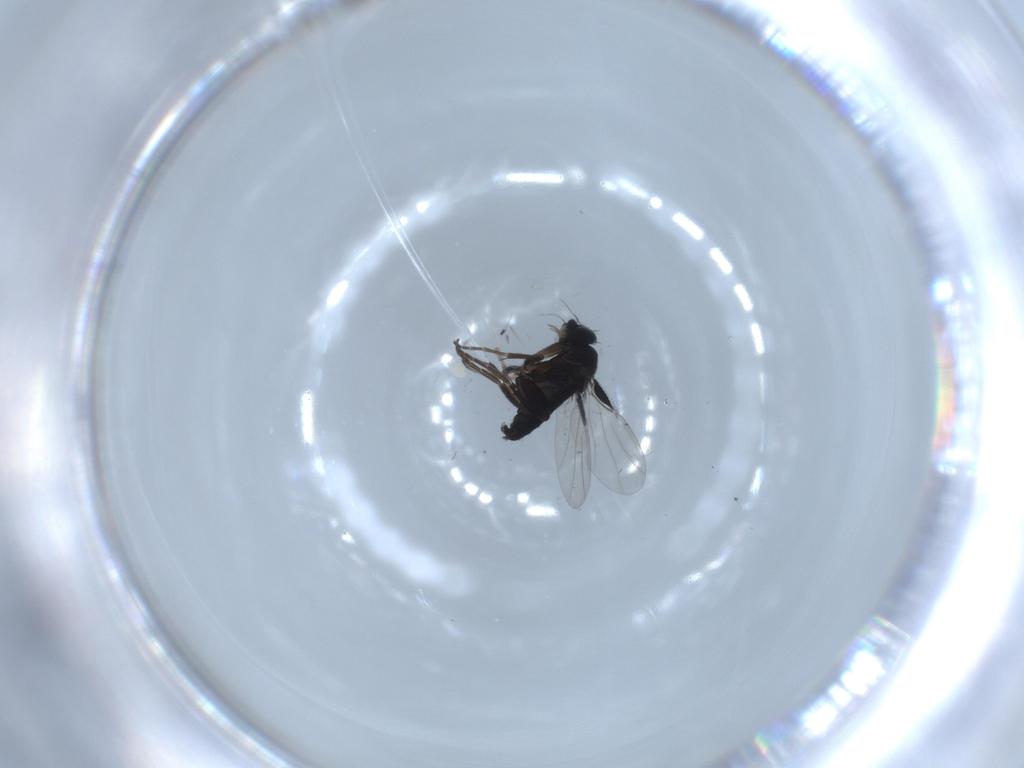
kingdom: Animalia
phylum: Arthropoda
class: Insecta
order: Diptera
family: Phoridae
